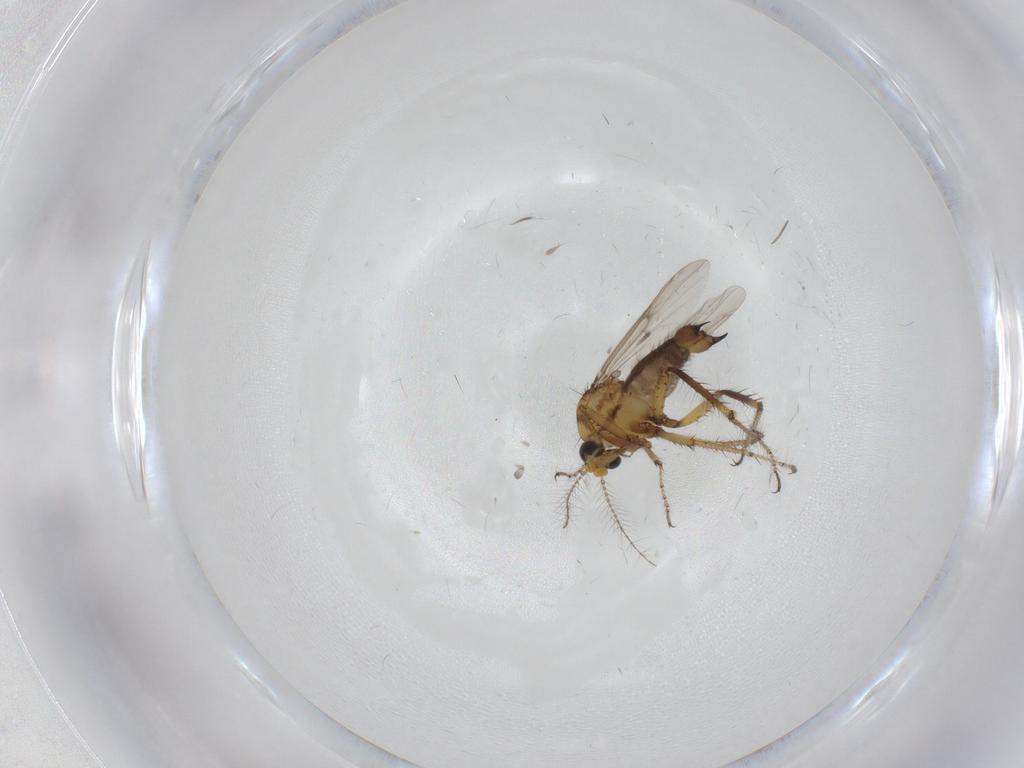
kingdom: Animalia
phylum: Arthropoda
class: Insecta
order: Diptera
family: Ceratopogonidae
